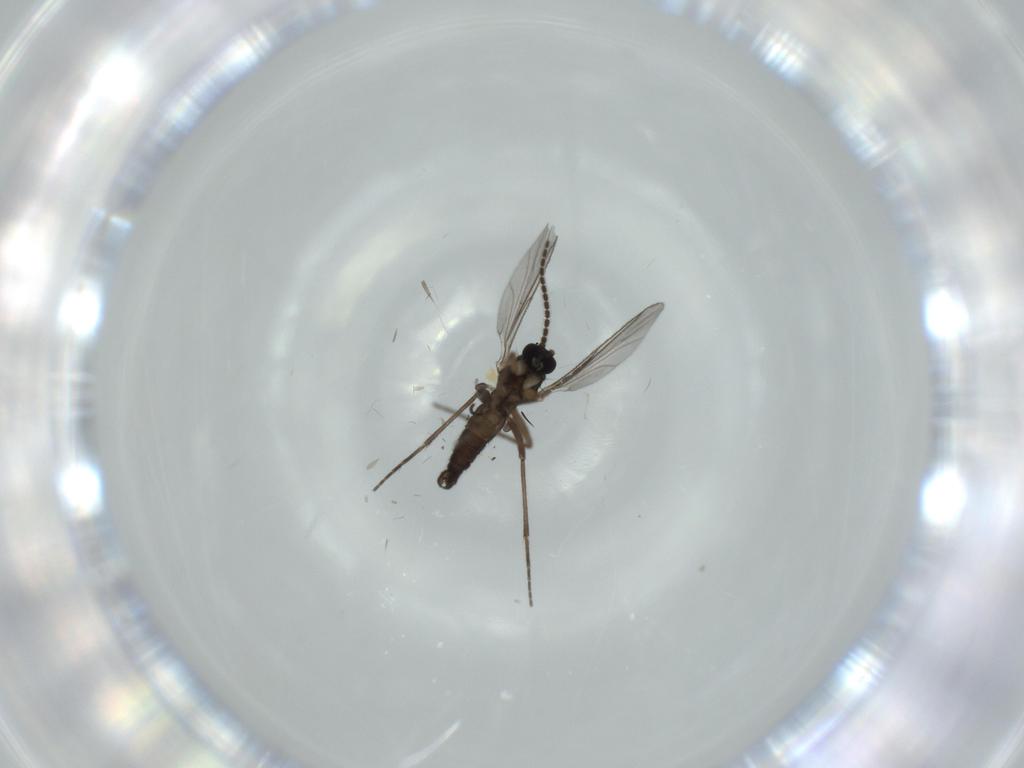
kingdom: Animalia
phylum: Arthropoda
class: Insecta
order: Diptera
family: Sciaridae
